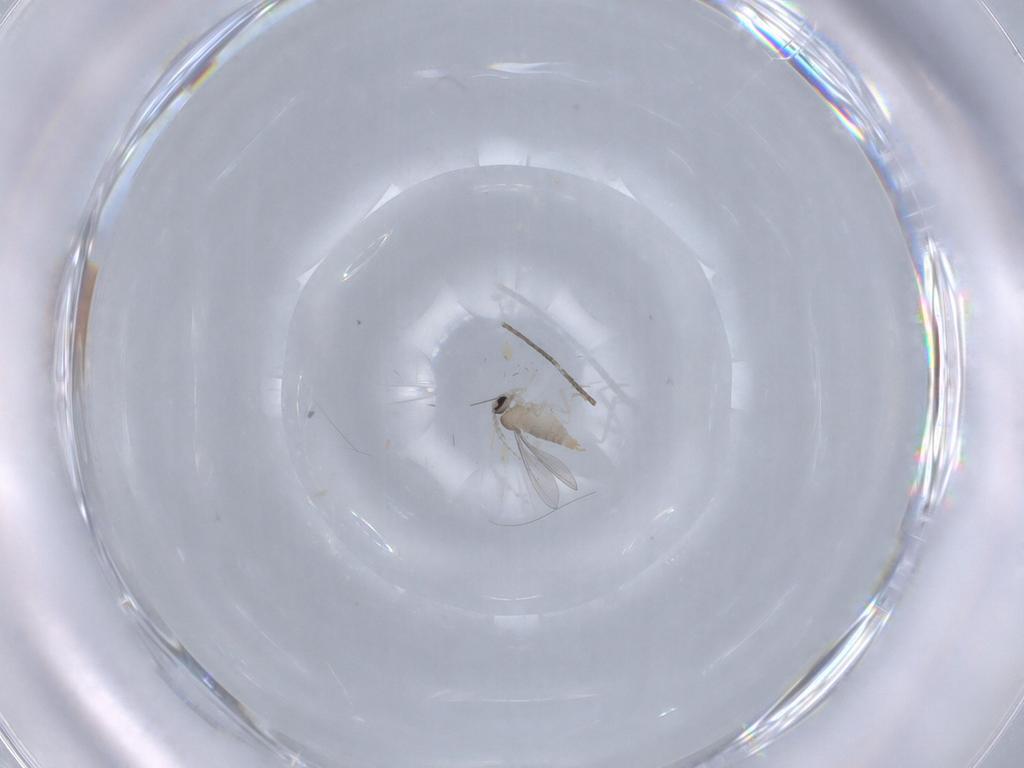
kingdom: Animalia
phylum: Arthropoda
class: Insecta
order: Diptera
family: Cecidomyiidae
